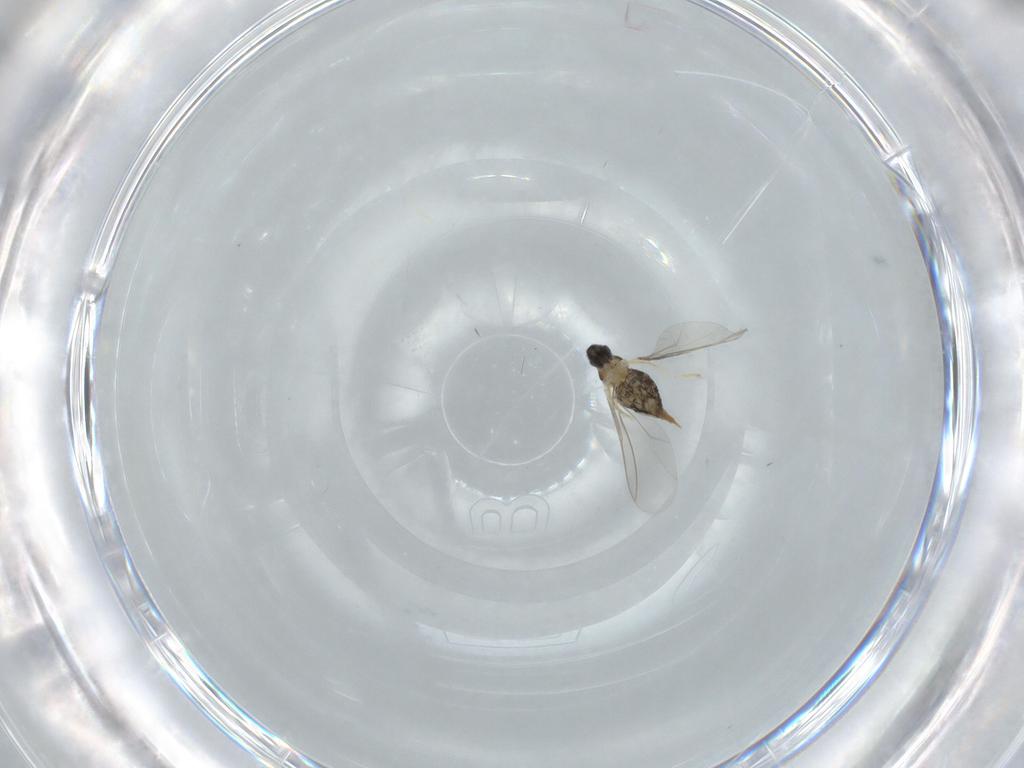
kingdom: Animalia
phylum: Arthropoda
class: Insecta
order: Diptera
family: Cecidomyiidae
